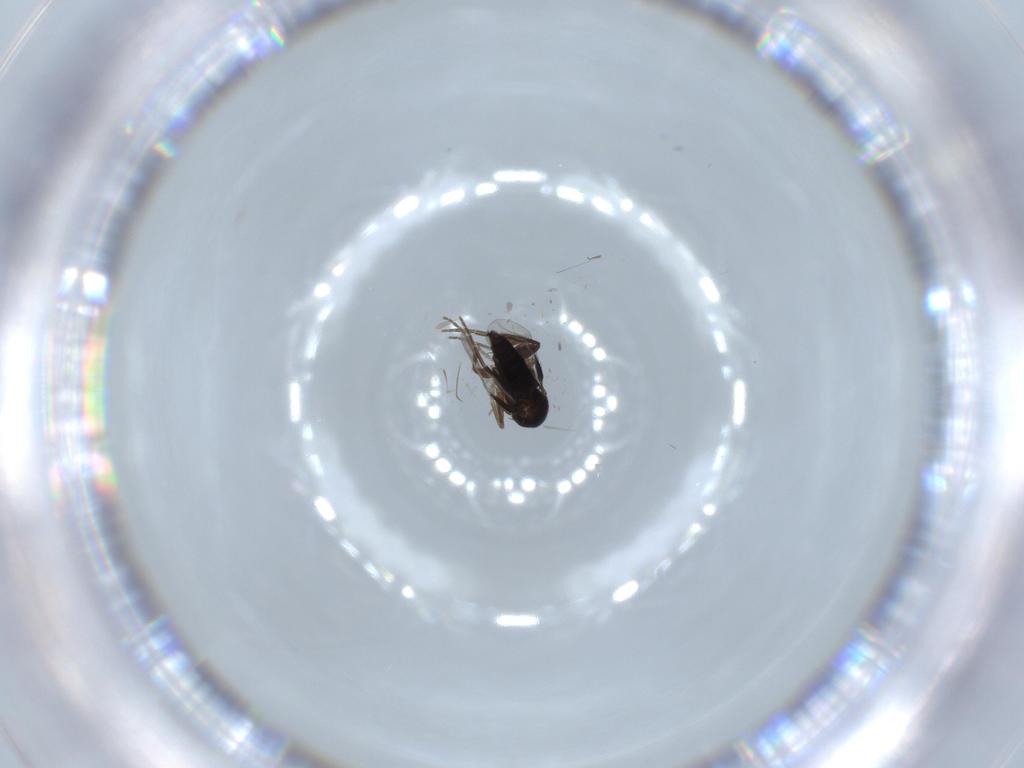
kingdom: Animalia
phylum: Arthropoda
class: Insecta
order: Diptera
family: Phoridae
